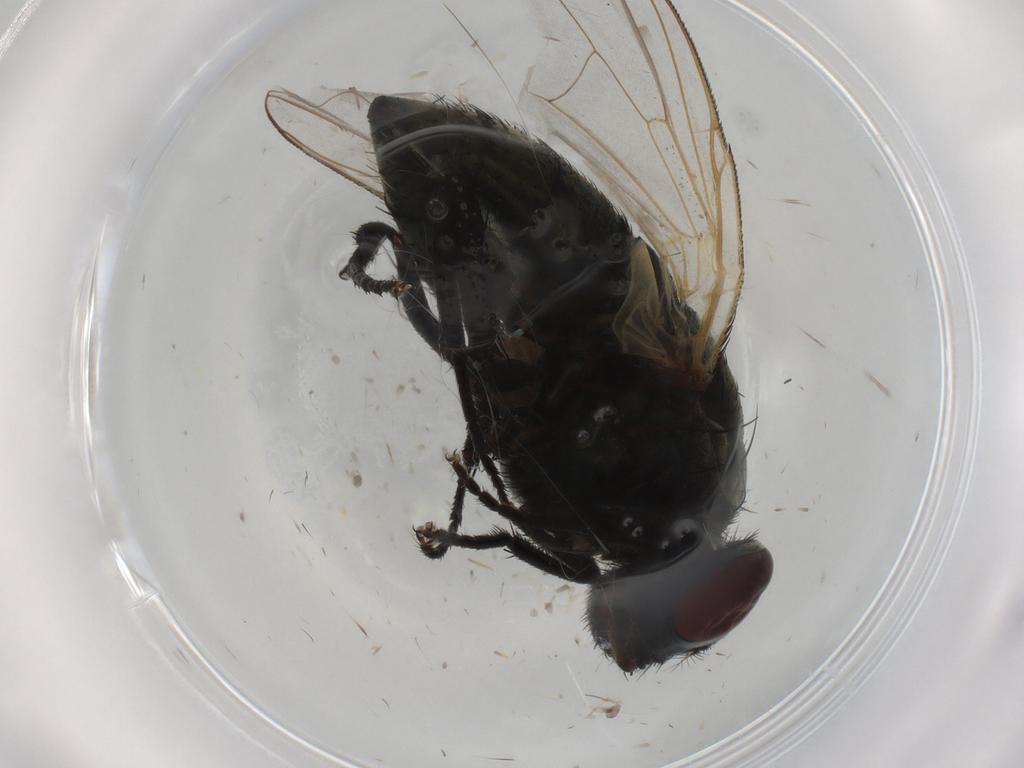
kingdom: Animalia
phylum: Arthropoda
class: Insecta
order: Diptera
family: Muscidae
